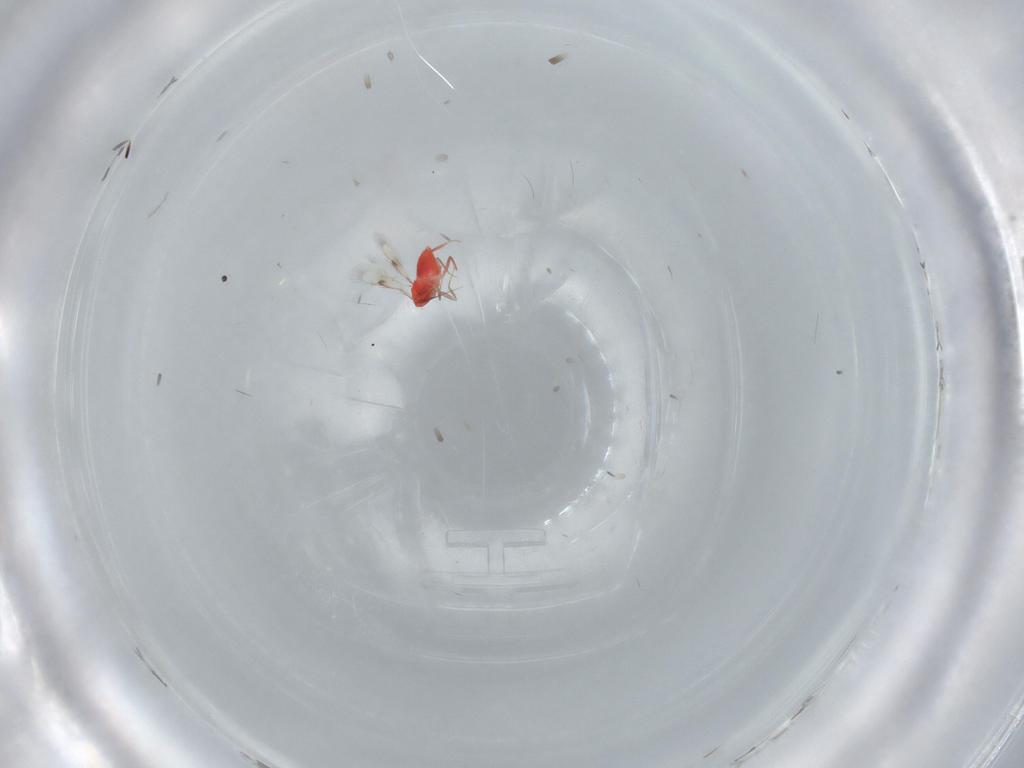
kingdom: Animalia
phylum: Arthropoda
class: Insecta
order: Hymenoptera
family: Trichogrammatidae
